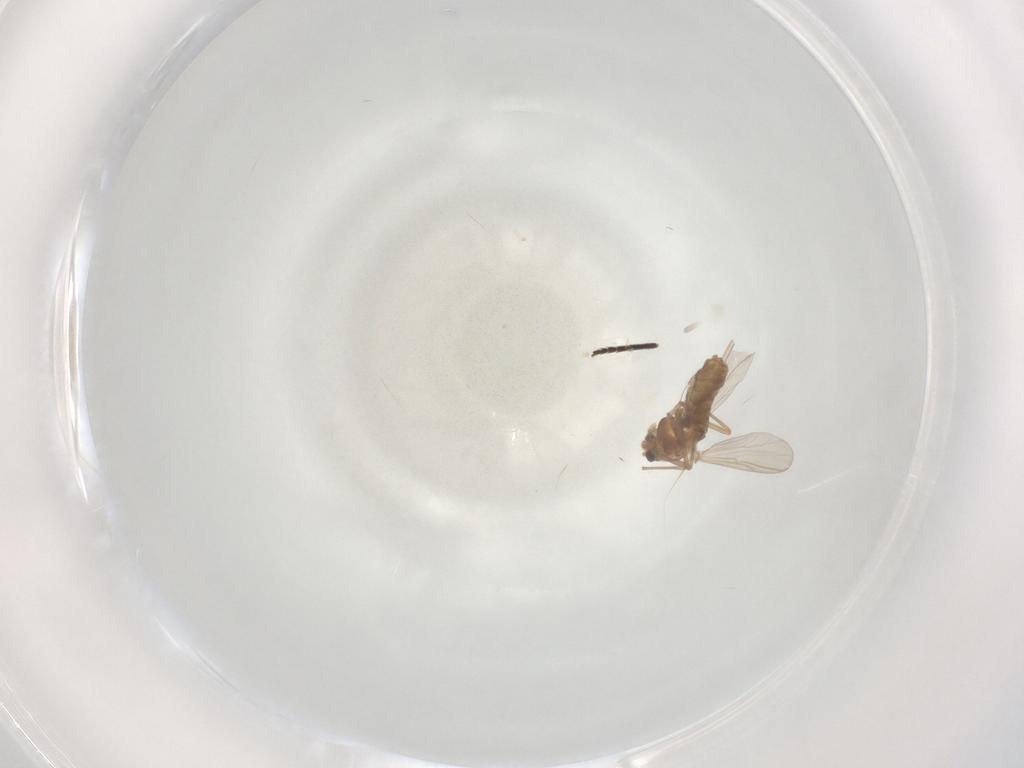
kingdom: Animalia
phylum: Arthropoda
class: Insecta
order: Diptera
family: Chironomidae
